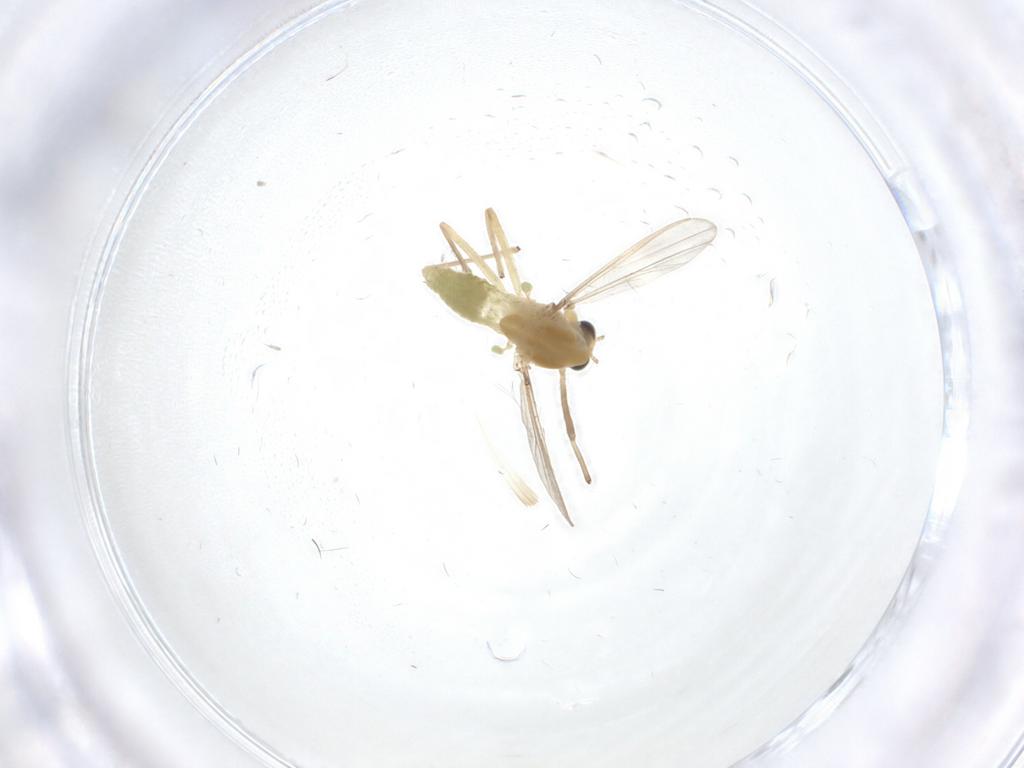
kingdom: Animalia
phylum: Arthropoda
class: Insecta
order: Diptera
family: Chironomidae
